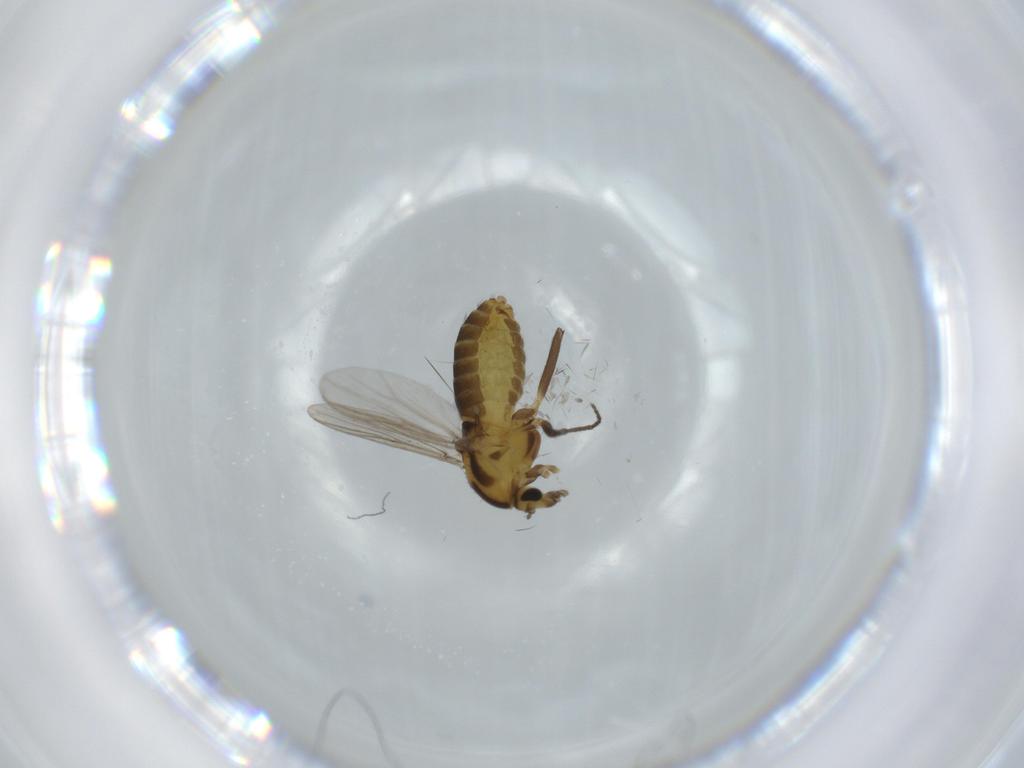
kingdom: Animalia
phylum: Arthropoda
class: Insecta
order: Diptera
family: Chironomidae
